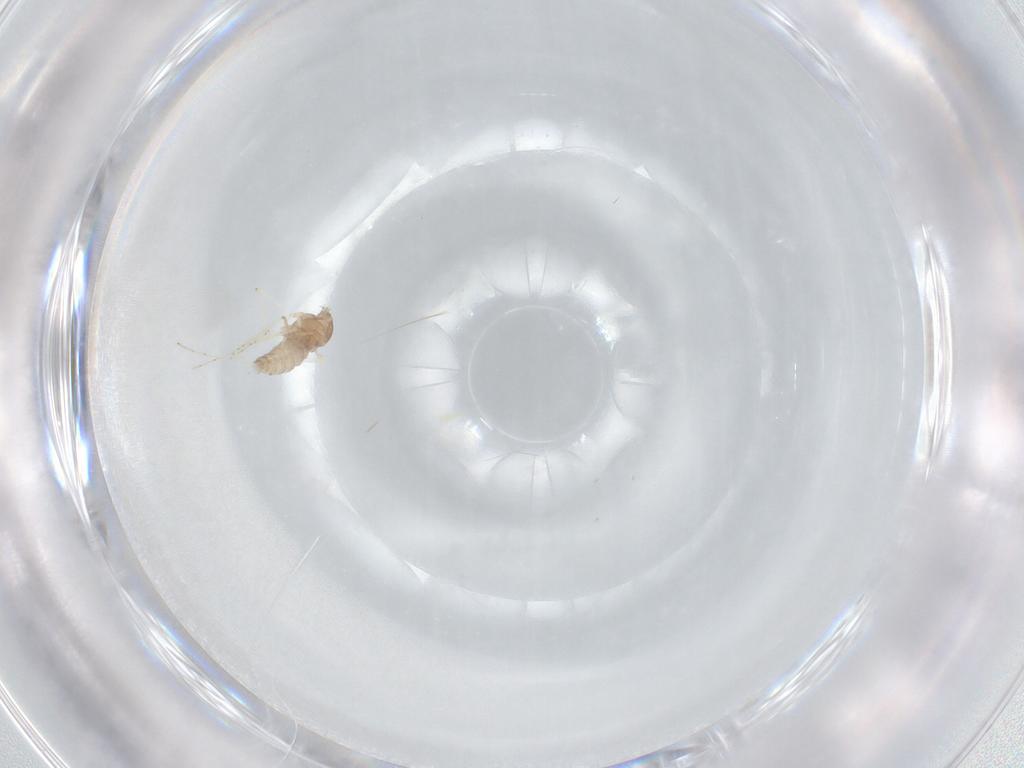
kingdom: Animalia
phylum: Arthropoda
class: Insecta
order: Diptera
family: Cecidomyiidae
